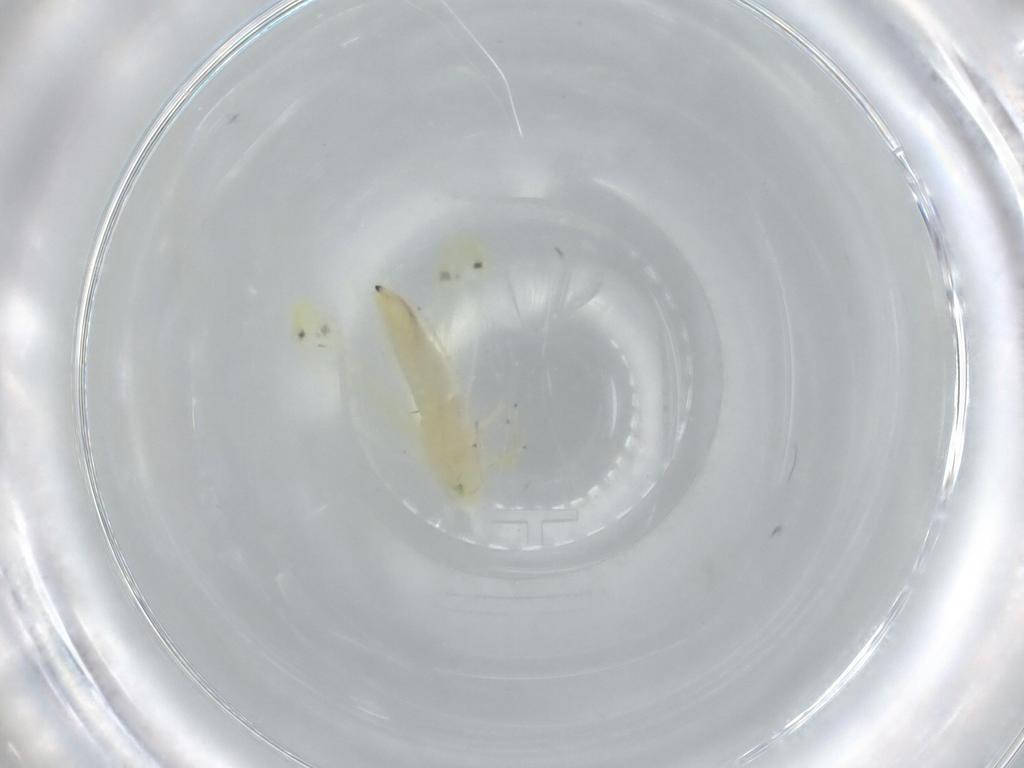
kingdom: Animalia
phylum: Arthropoda
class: Insecta
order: Hemiptera
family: Cicadellidae
